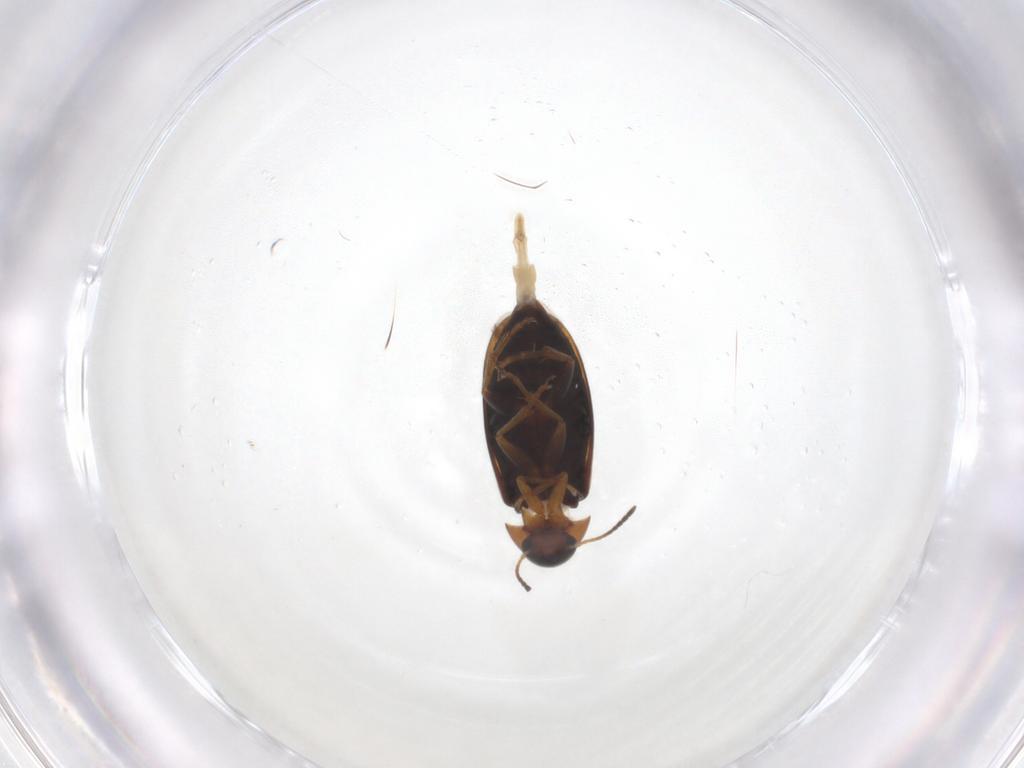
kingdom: Animalia
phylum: Arthropoda
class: Insecta
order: Coleoptera
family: Scraptiidae
